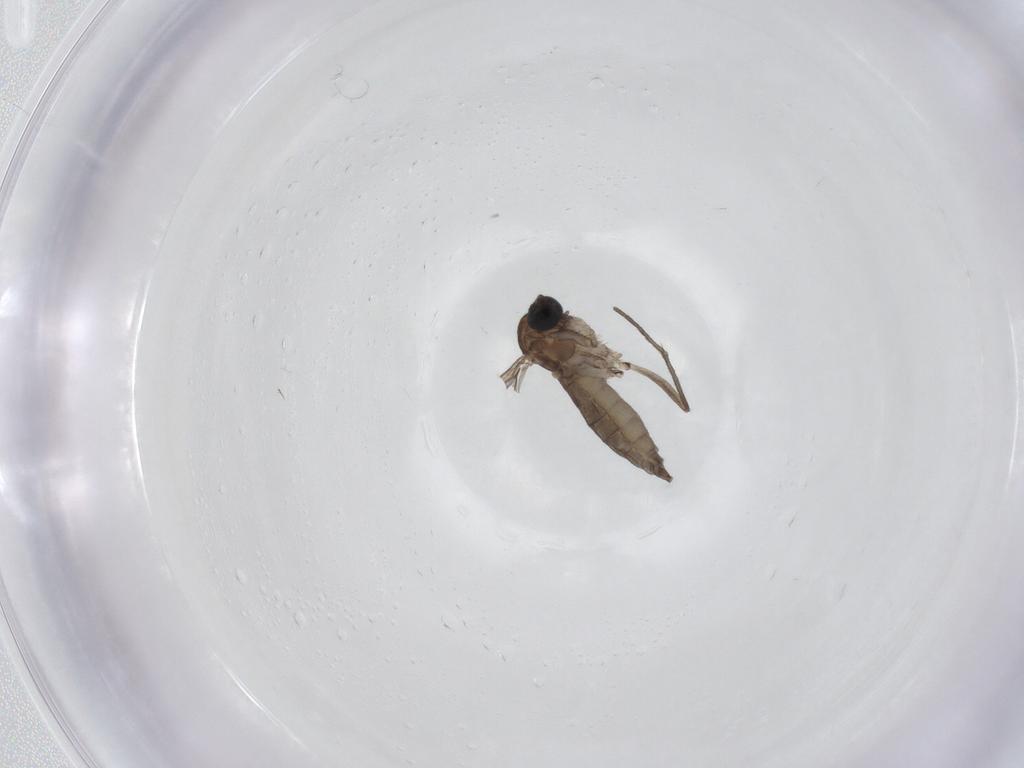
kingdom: Animalia
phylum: Arthropoda
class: Insecta
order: Diptera
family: Sciaridae
